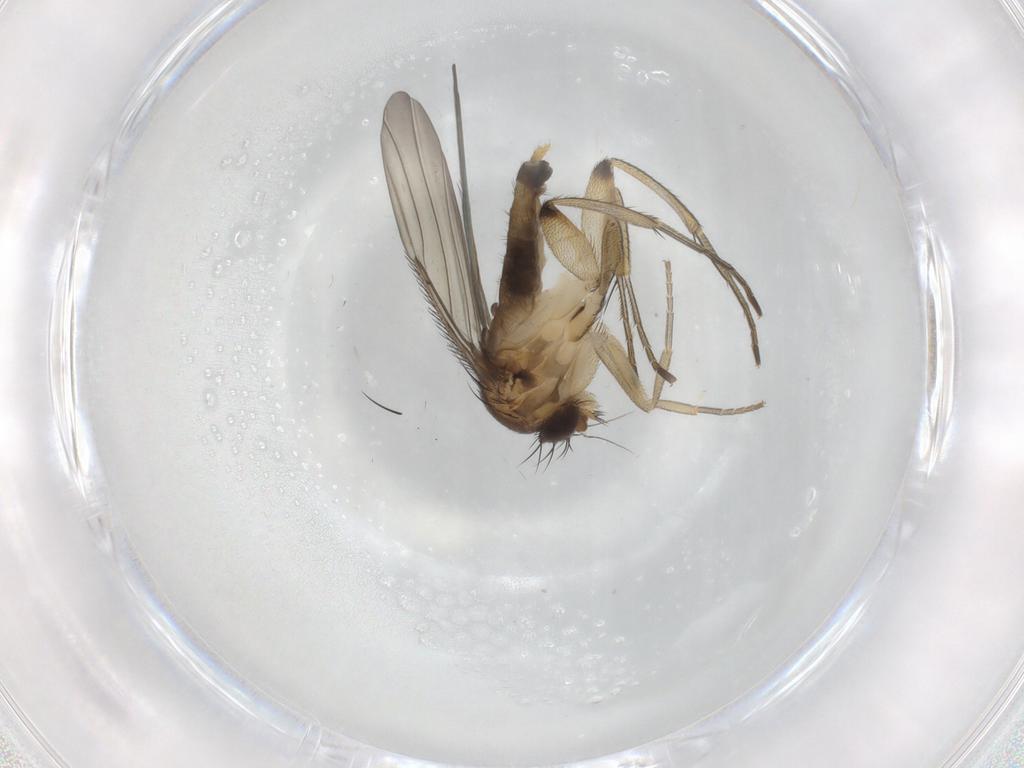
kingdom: Animalia
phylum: Arthropoda
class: Insecta
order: Diptera
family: Phoridae
